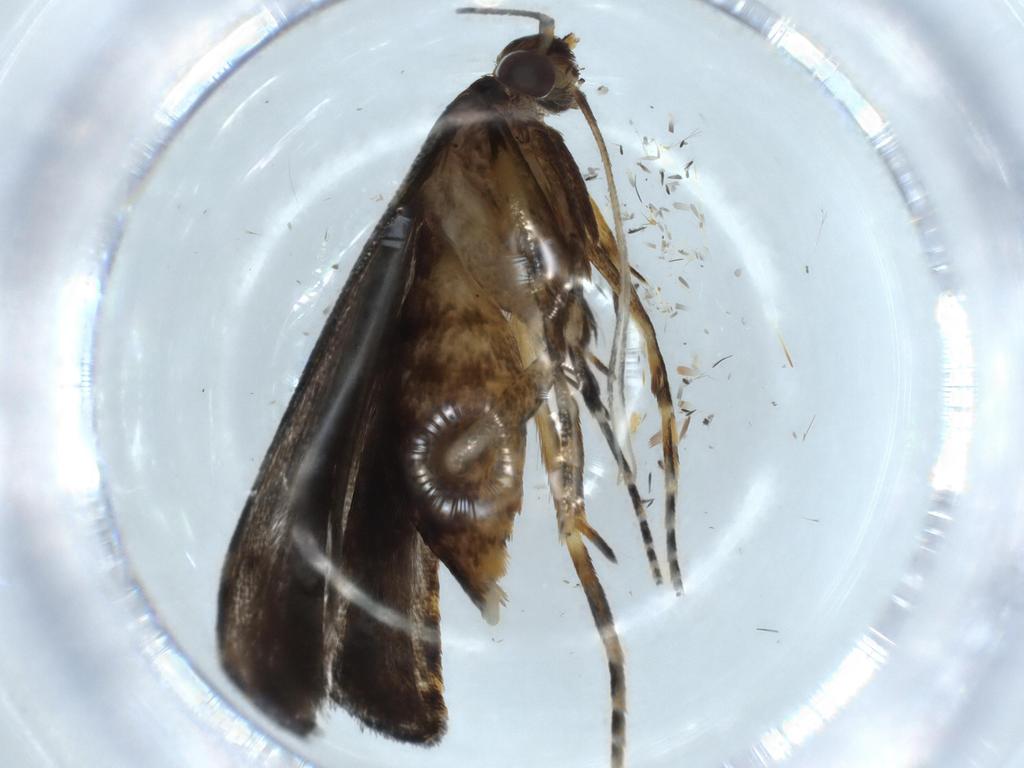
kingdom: Animalia
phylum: Arthropoda
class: Insecta
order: Lepidoptera
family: Autostichidae
